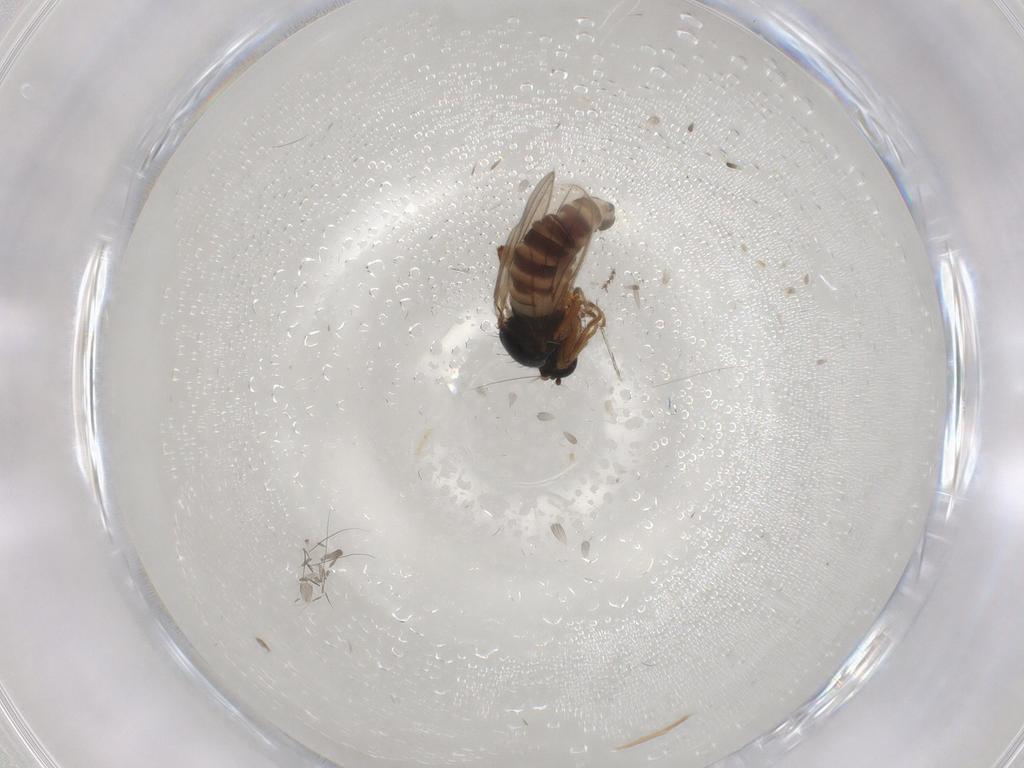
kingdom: Animalia
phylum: Arthropoda
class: Insecta
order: Diptera
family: Hybotidae
